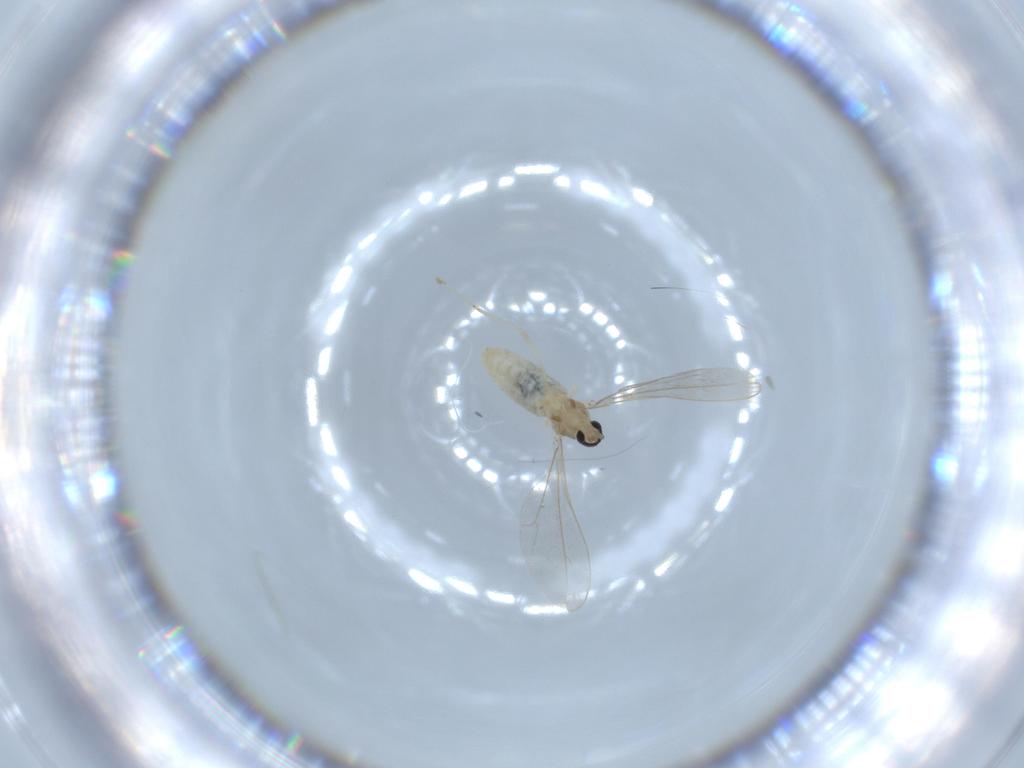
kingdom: Animalia
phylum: Arthropoda
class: Insecta
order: Diptera
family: Cecidomyiidae
